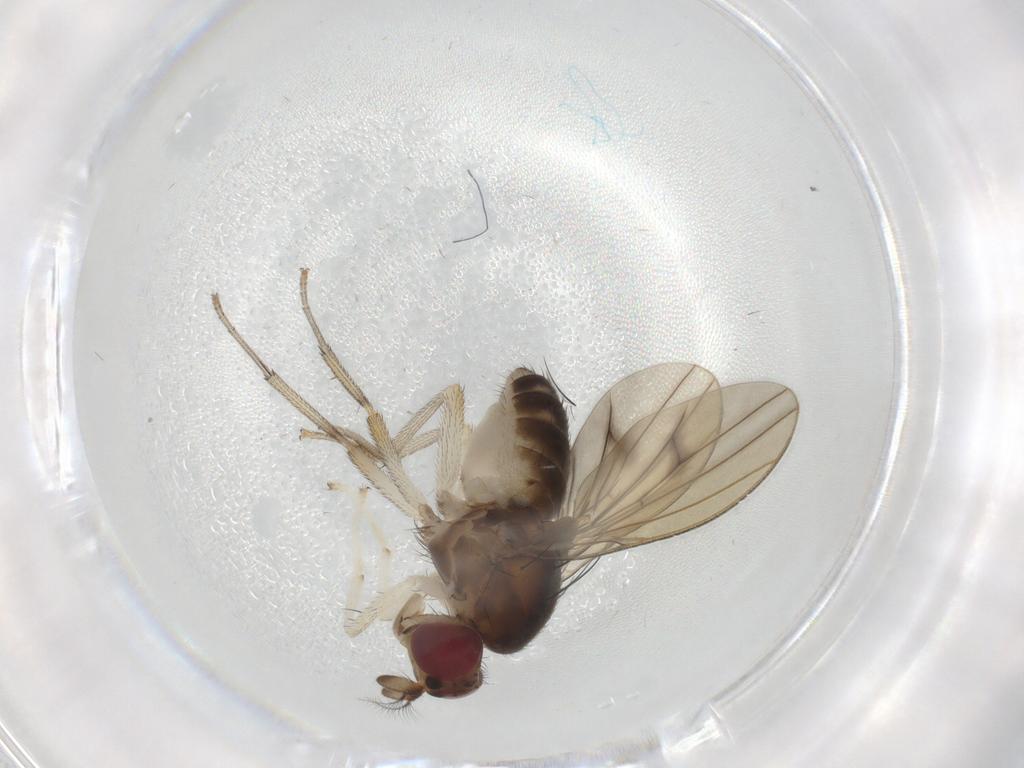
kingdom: Animalia
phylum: Arthropoda
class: Insecta
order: Diptera
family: Lauxaniidae
